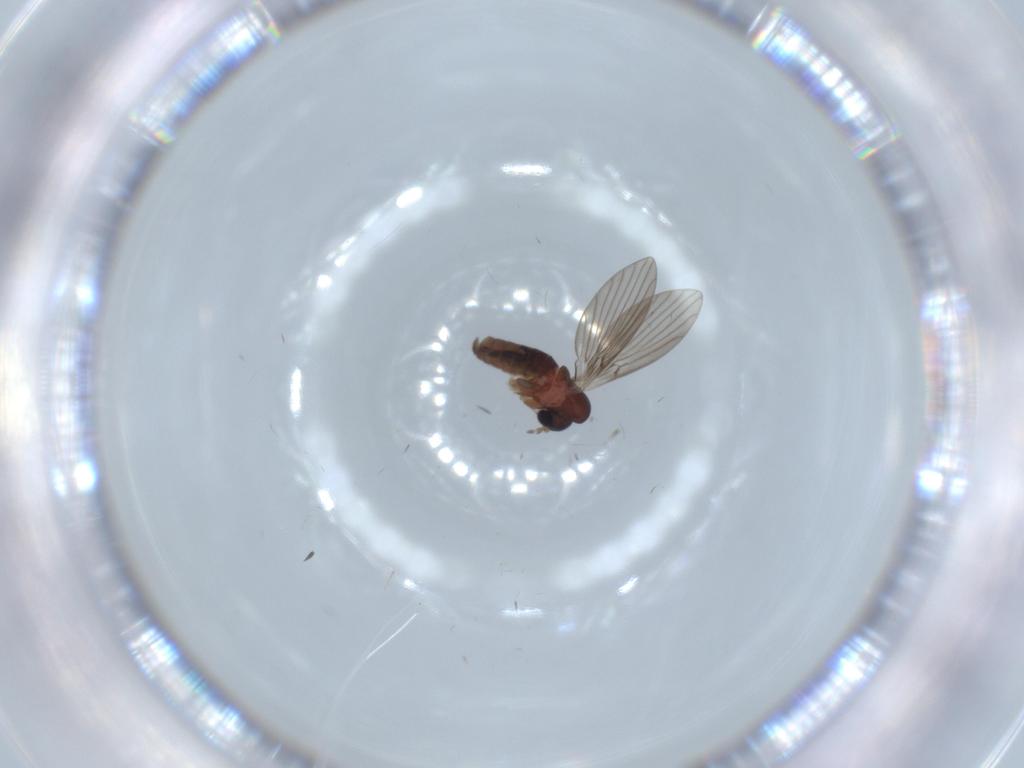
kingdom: Animalia
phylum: Arthropoda
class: Insecta
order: Diptera
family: Psychodidae
